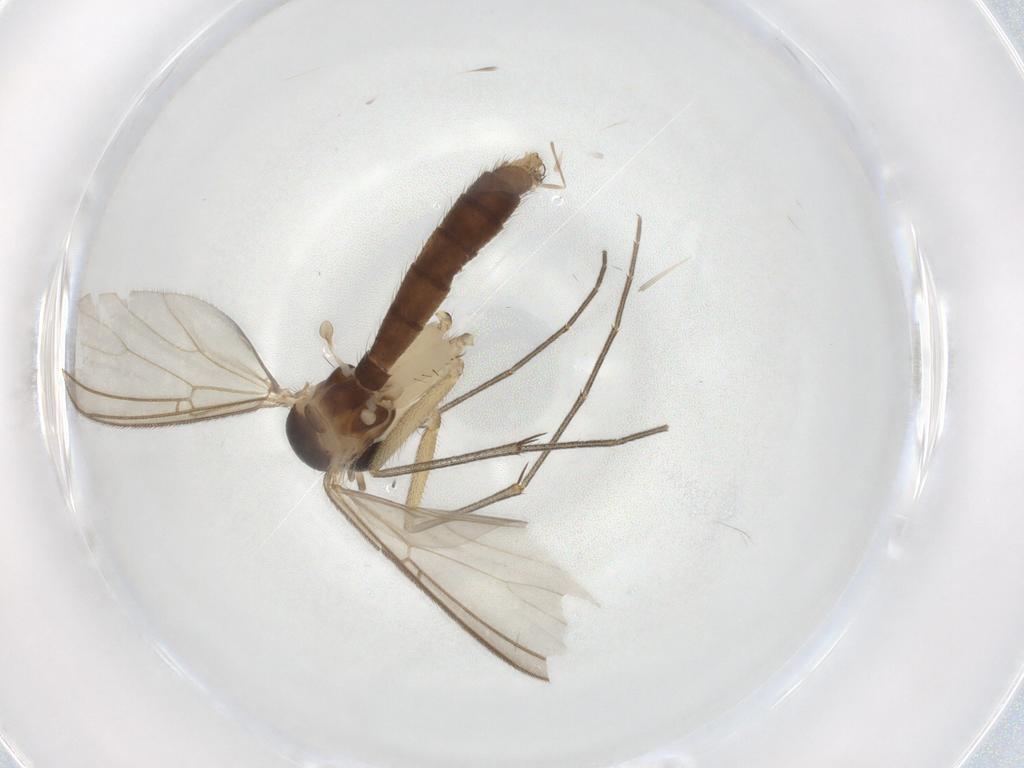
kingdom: Animalia
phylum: Arthropoda
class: Insecta
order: Diptera
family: Mycetophilidae
